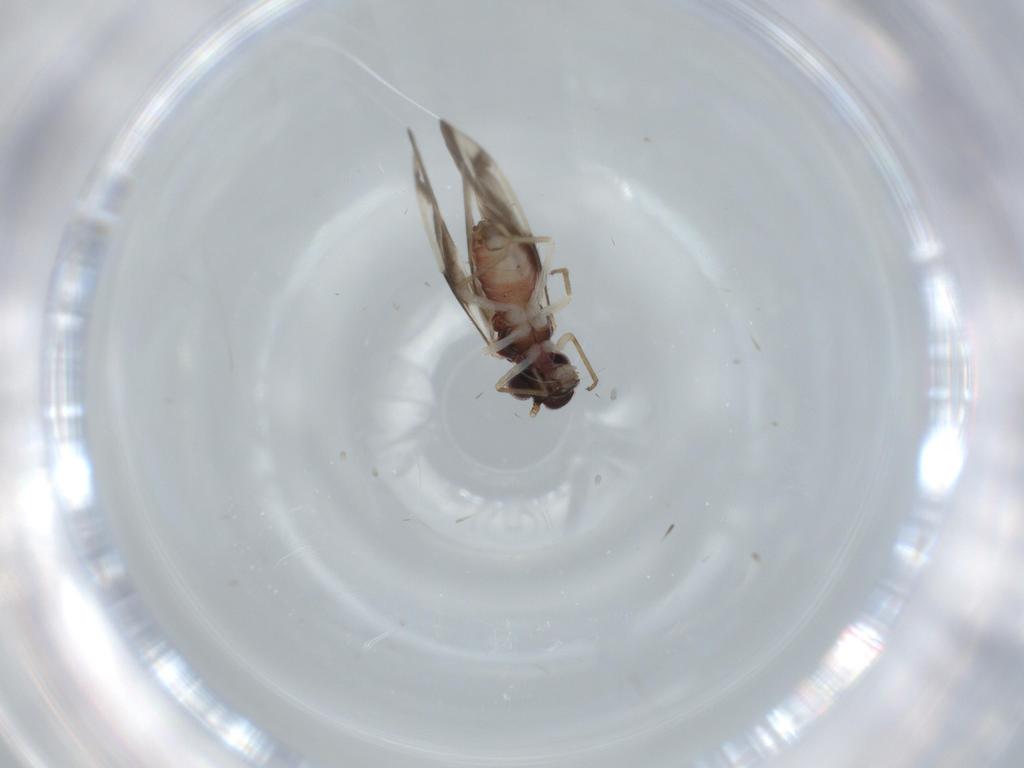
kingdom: Animalia
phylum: Arthropoda
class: Insecta
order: Psocodea
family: Caeciliusidae
